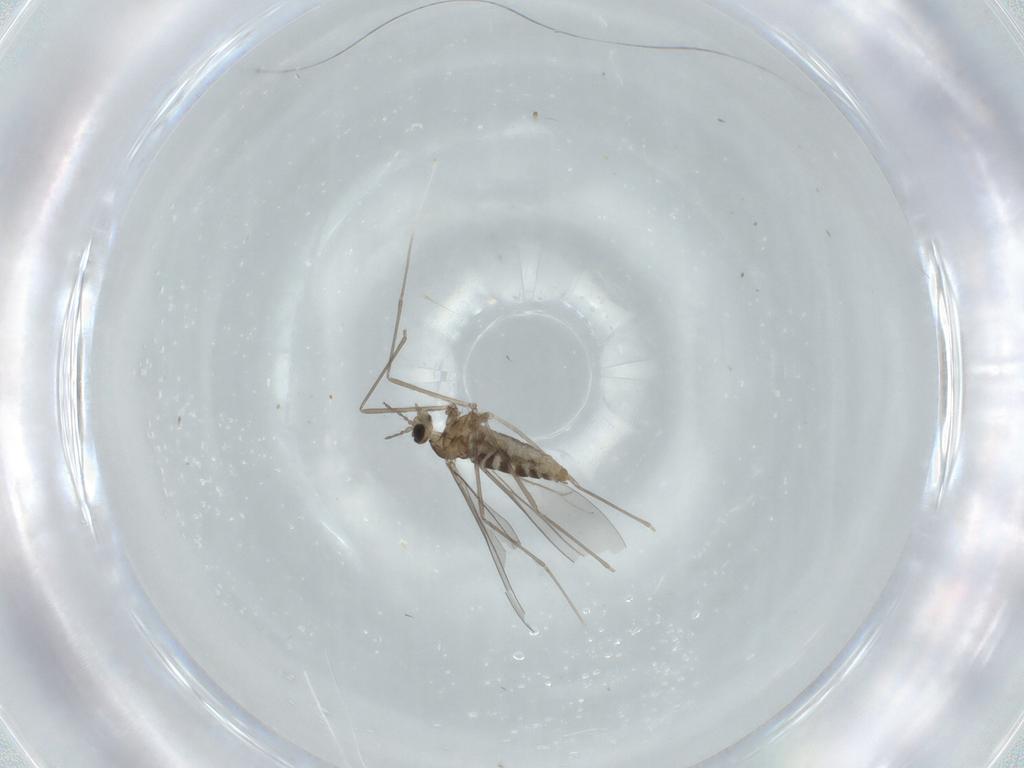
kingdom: Animalia
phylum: Arthropoda
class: Insecta
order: Diptera
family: Cecidomyiidae
